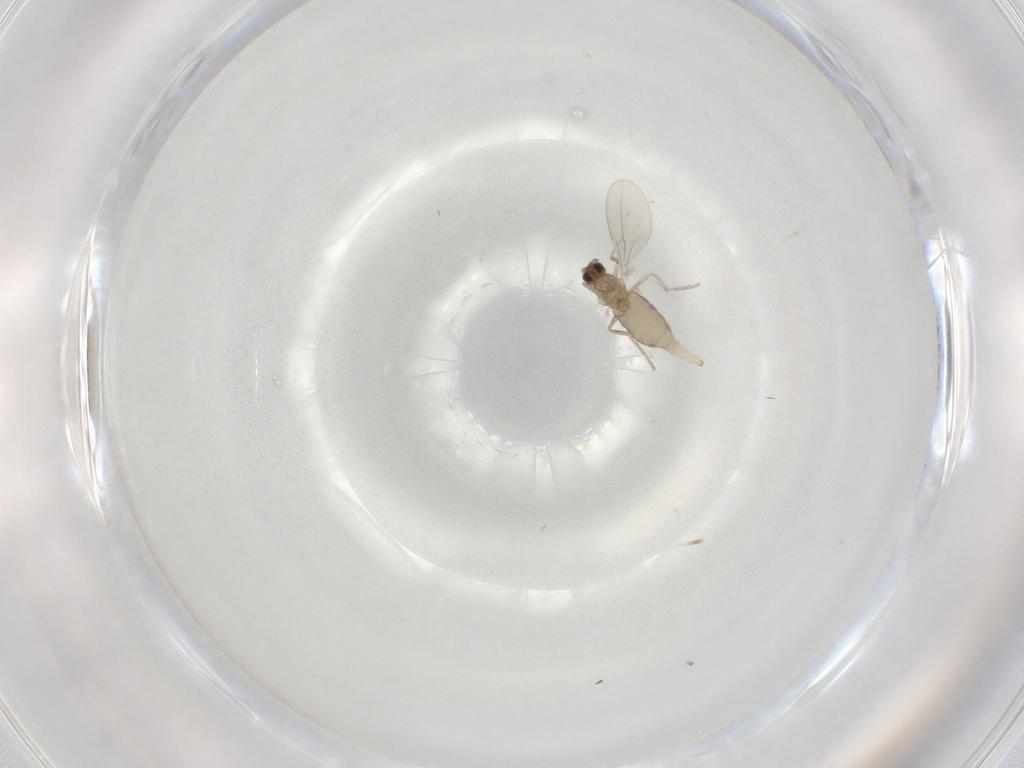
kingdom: Animalia
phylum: Arthropoda
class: Insecta
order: Diptera
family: Cecidomyiidae
